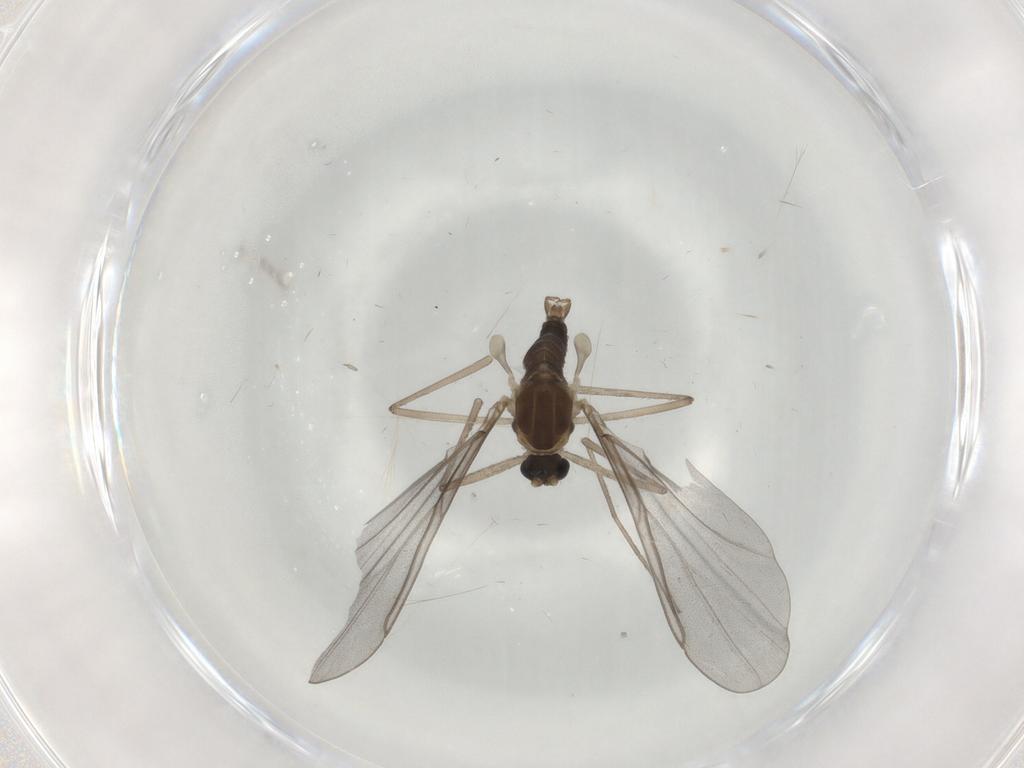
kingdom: Animalia
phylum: Arthropoda
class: Insecta
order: Diptera
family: Cecidomyiidae
